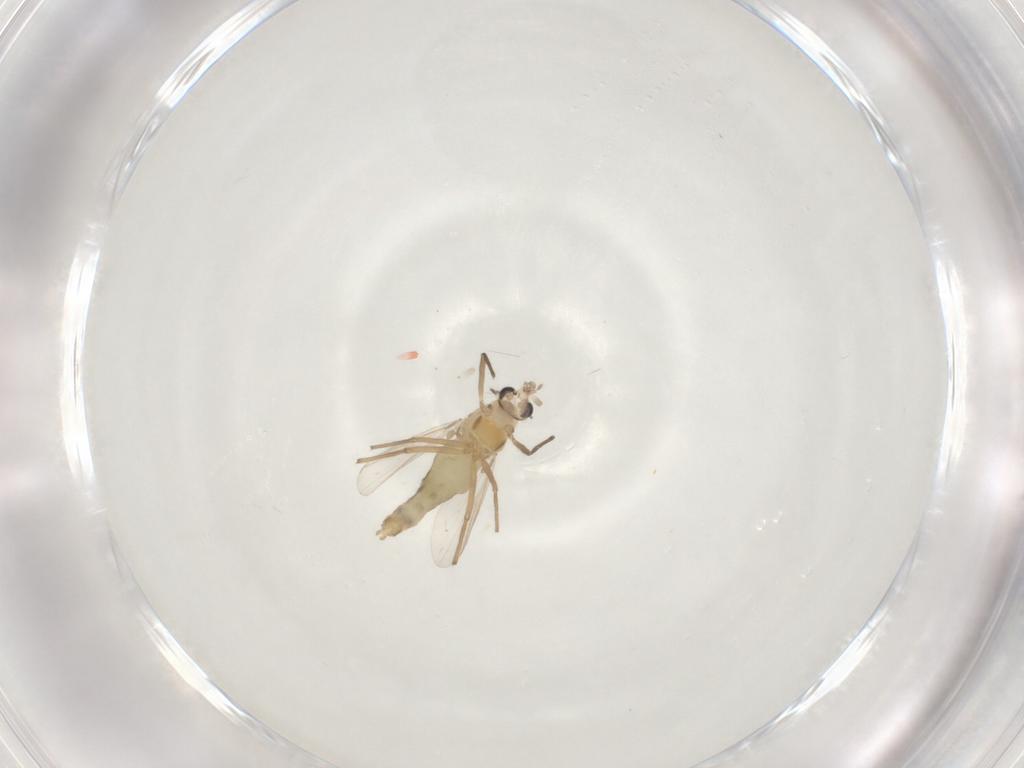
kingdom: Animalia
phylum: Arthropoda
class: Insecta
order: Diptera
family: Chironomidae
